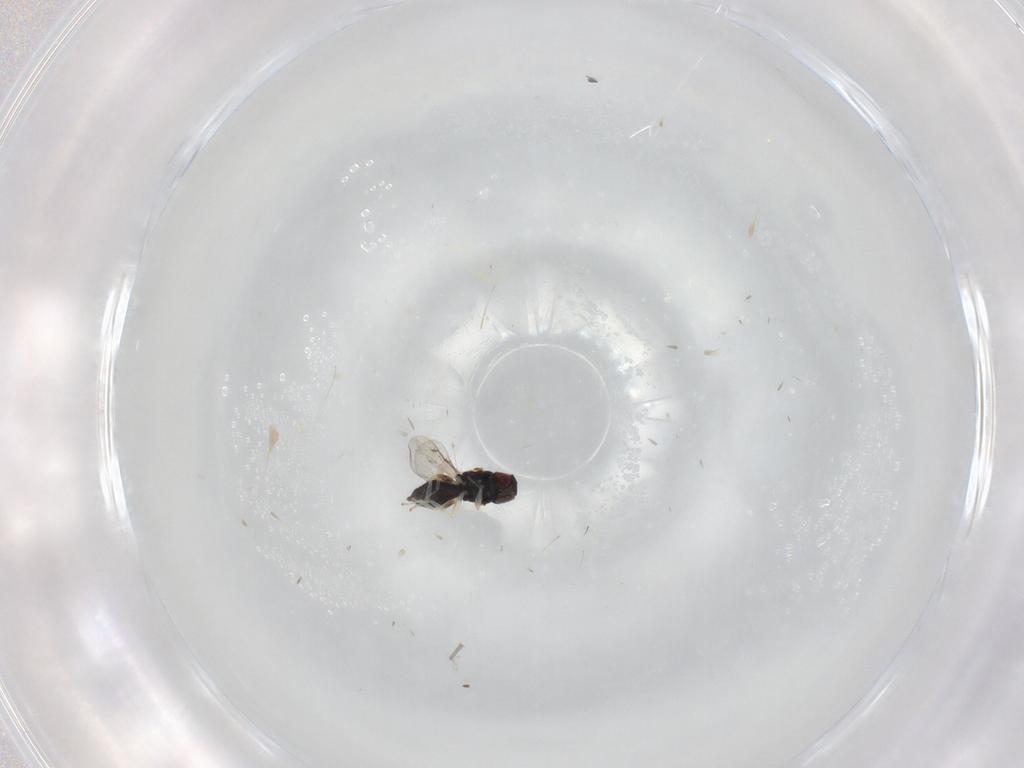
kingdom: Animalia
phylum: Arthropoda
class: Insecta
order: Hymenoptera
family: Eulophidae
